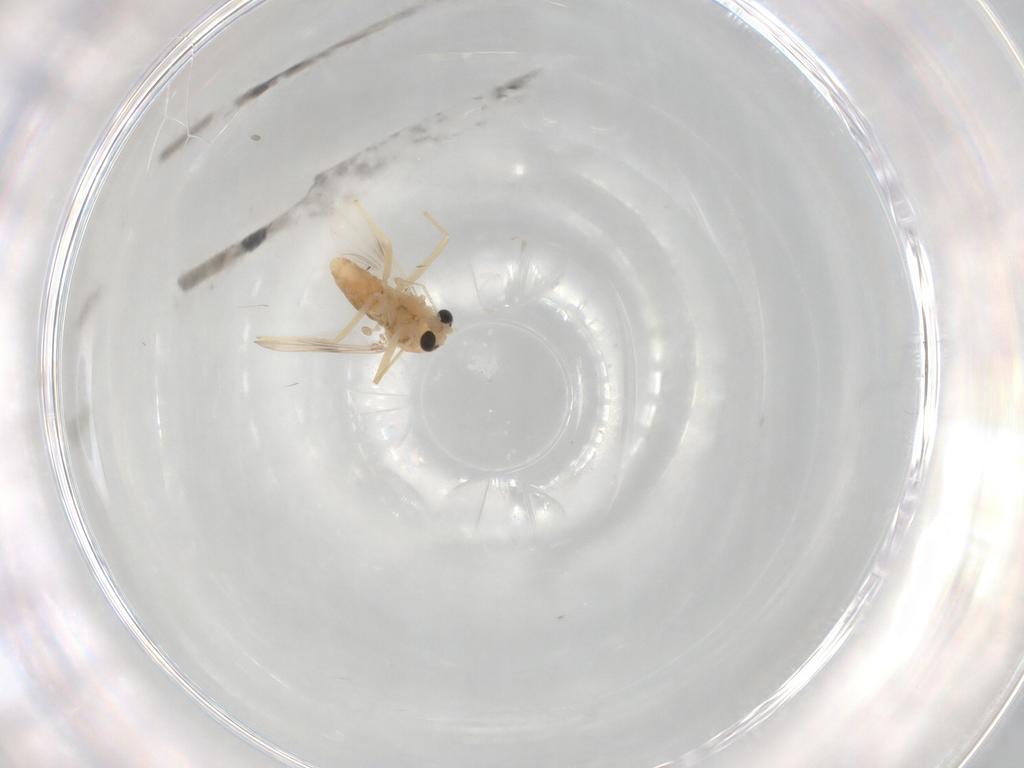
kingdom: Animalia
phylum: Arthropoda
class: Insecta
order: Diptera
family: Chironomidae
